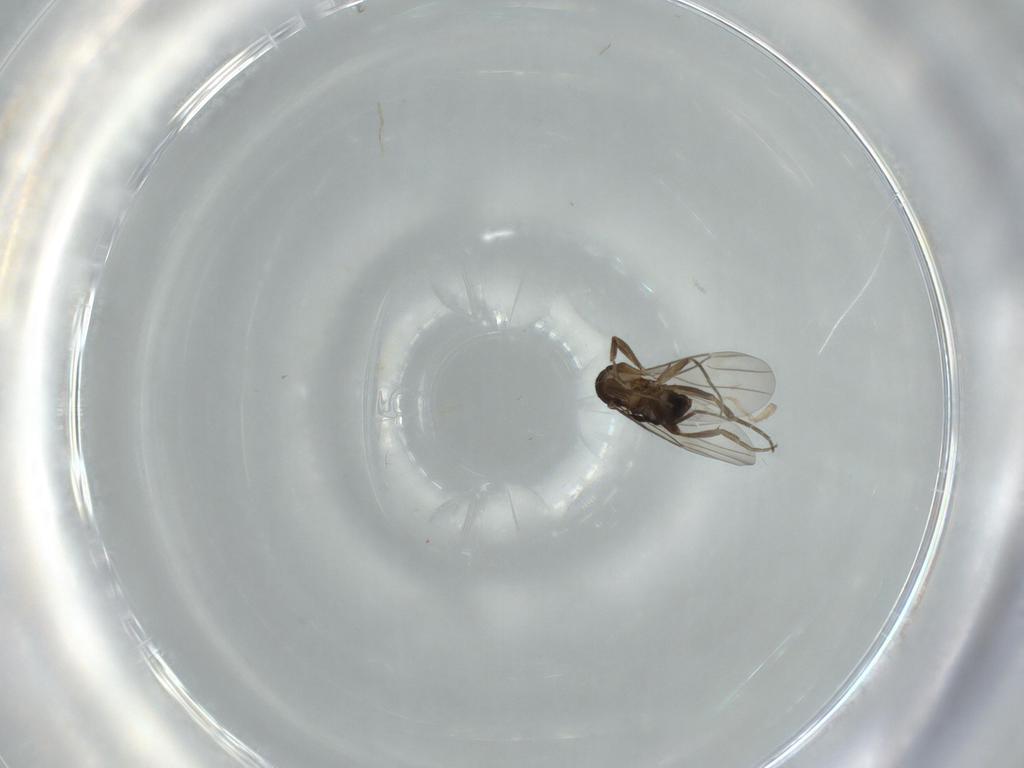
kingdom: Animalia
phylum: Arthropoda
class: Insecta
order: Diptera
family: Phoridae
